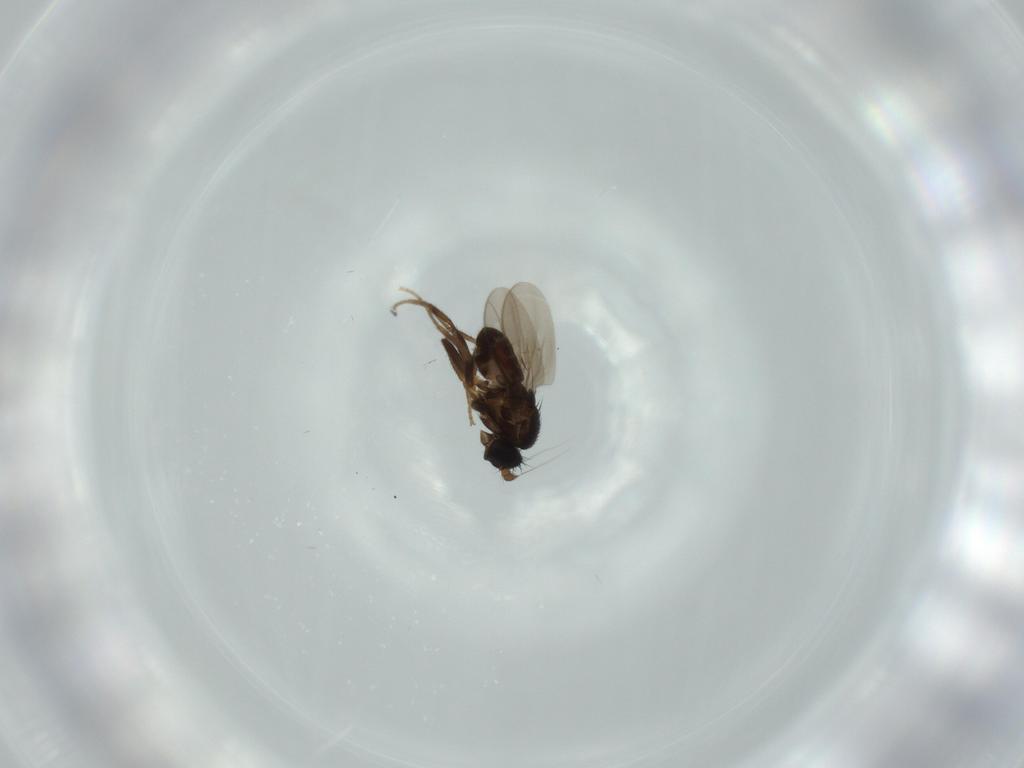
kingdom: Animalia
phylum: Arthropoda
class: Insecta
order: Diptera
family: Sphaeroceridae
